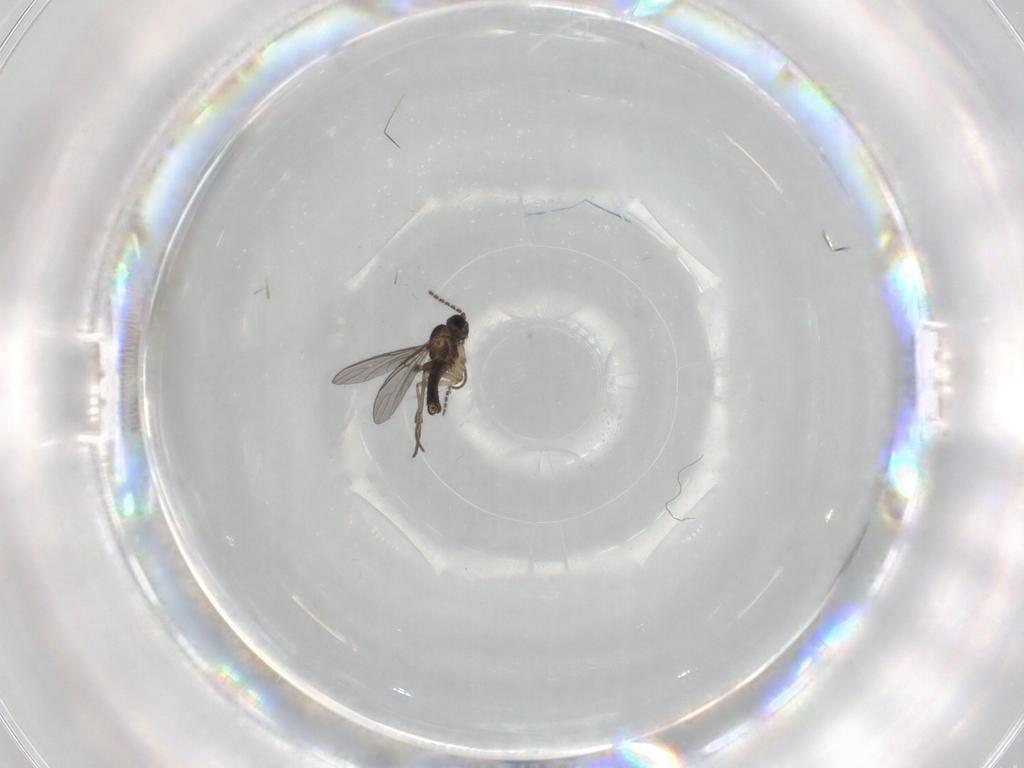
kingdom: Animalia
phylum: Arthropoda
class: Insecta
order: Diptera
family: Sciaridae
